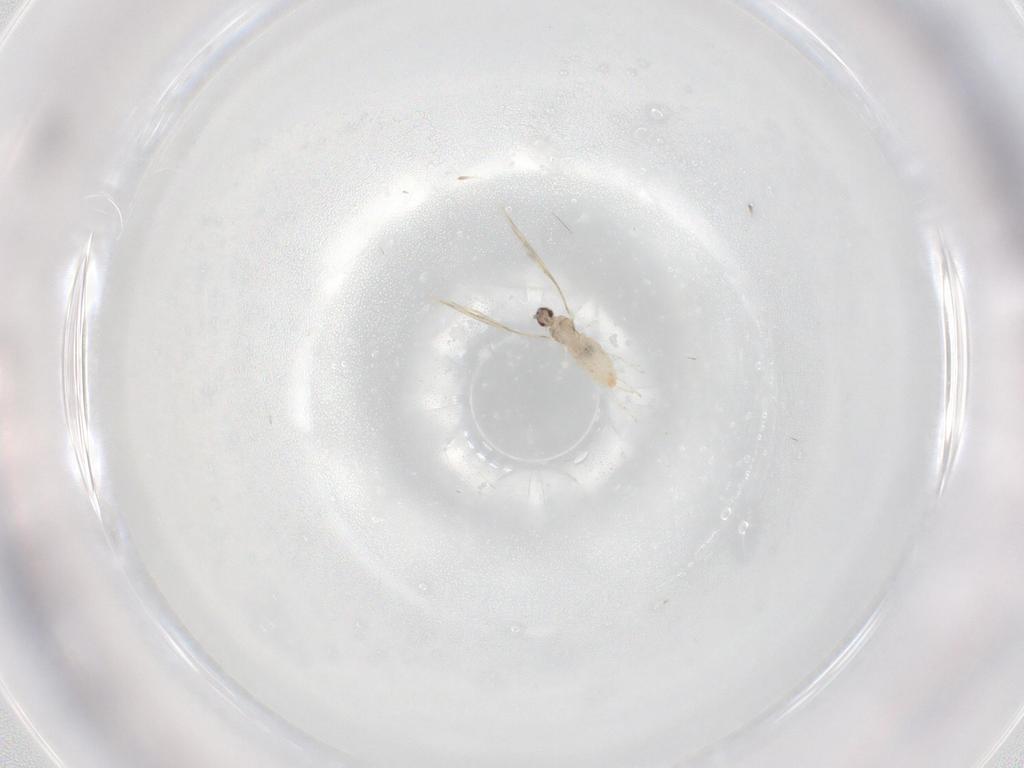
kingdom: Animalia
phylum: Arthropoda
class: Insecta
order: Diptera
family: Cecidomyiidae
